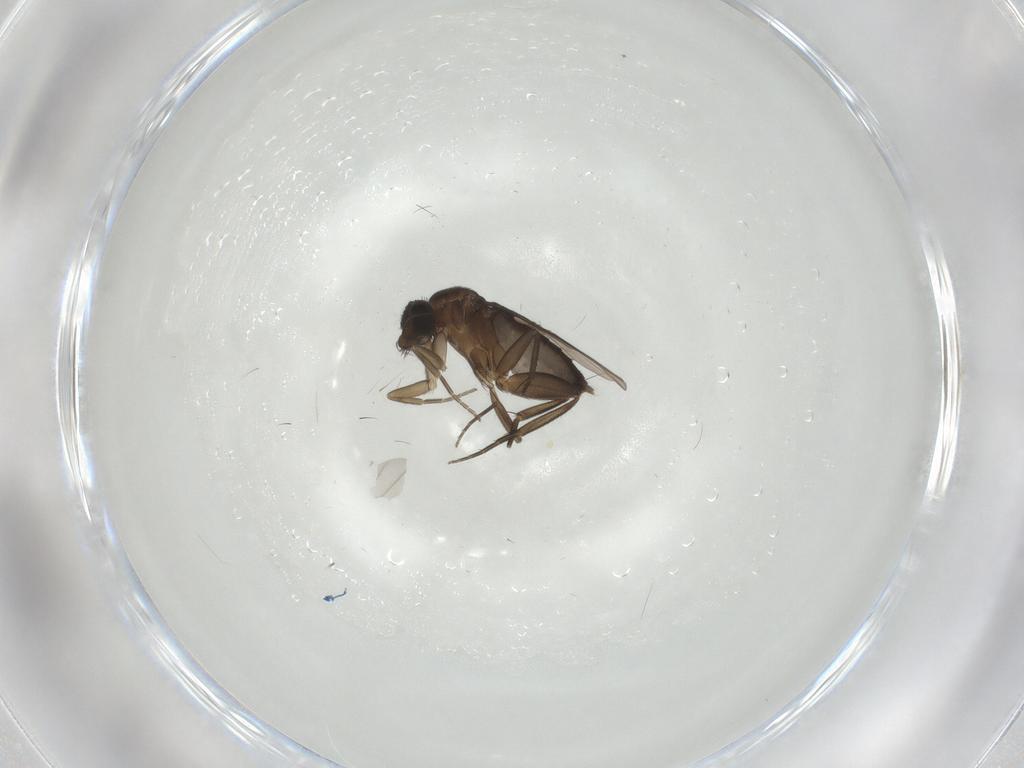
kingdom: Animalia
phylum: Arthropoda
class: Insecta
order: Diptera
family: Phoridae
